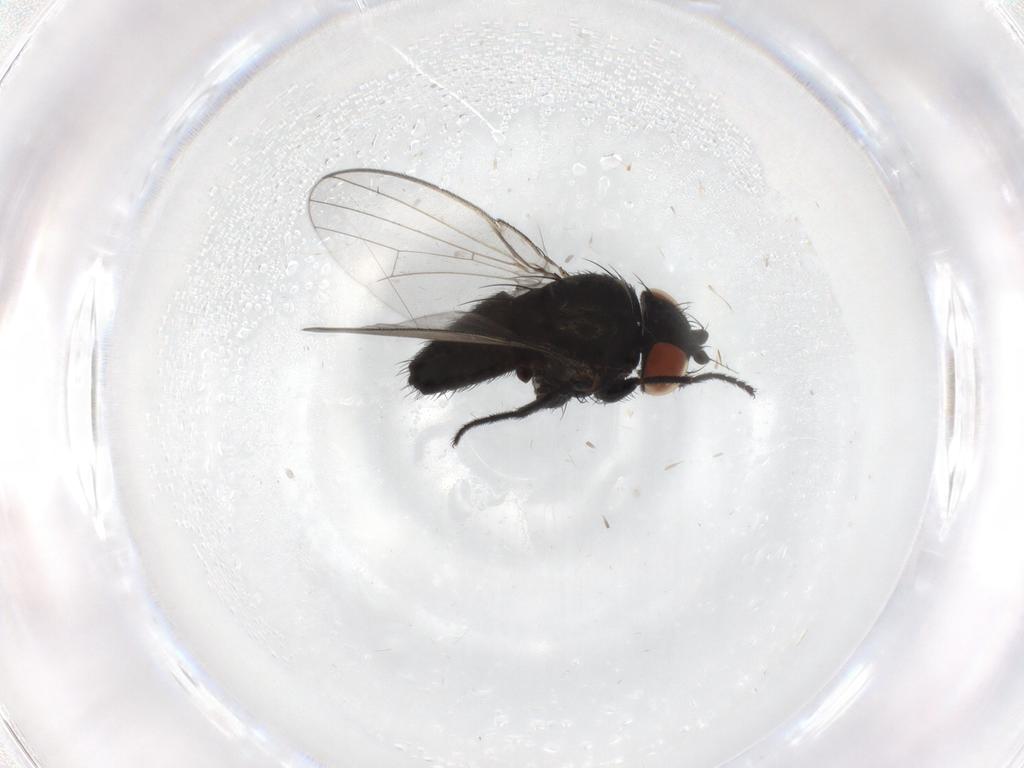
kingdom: Animalia
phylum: Arthropoda
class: Insecta
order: Diptera
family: Milichiidae
